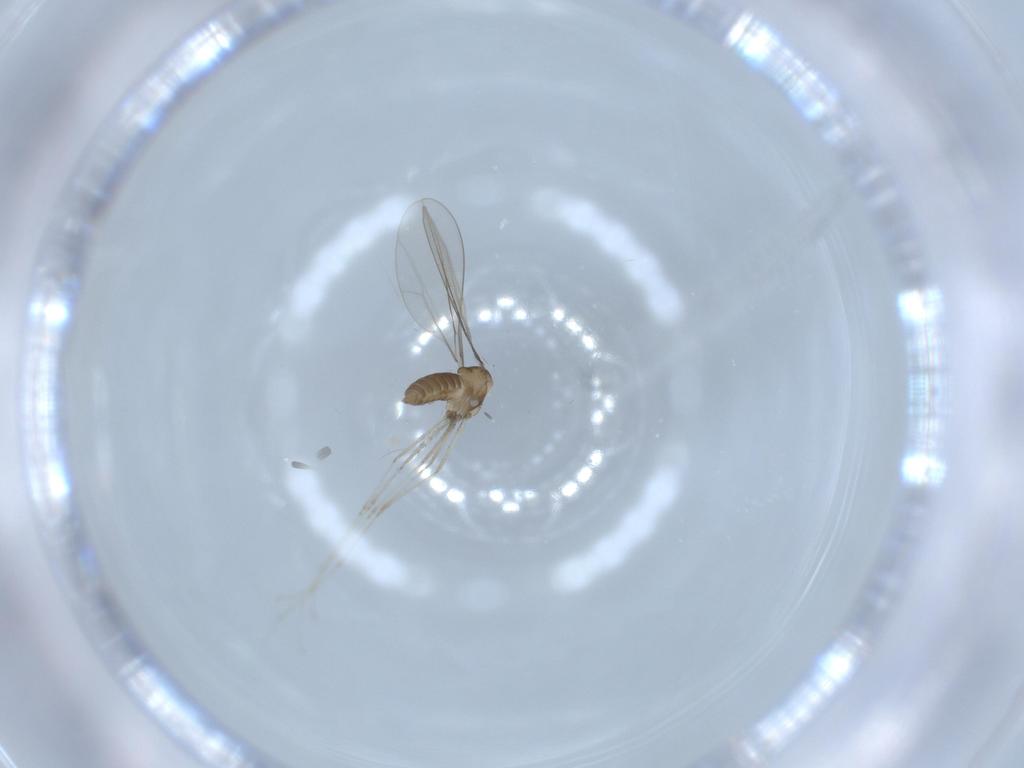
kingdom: Animalia
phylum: Arthropoda
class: Insecta
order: Diptera
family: Cecidomyiidae
